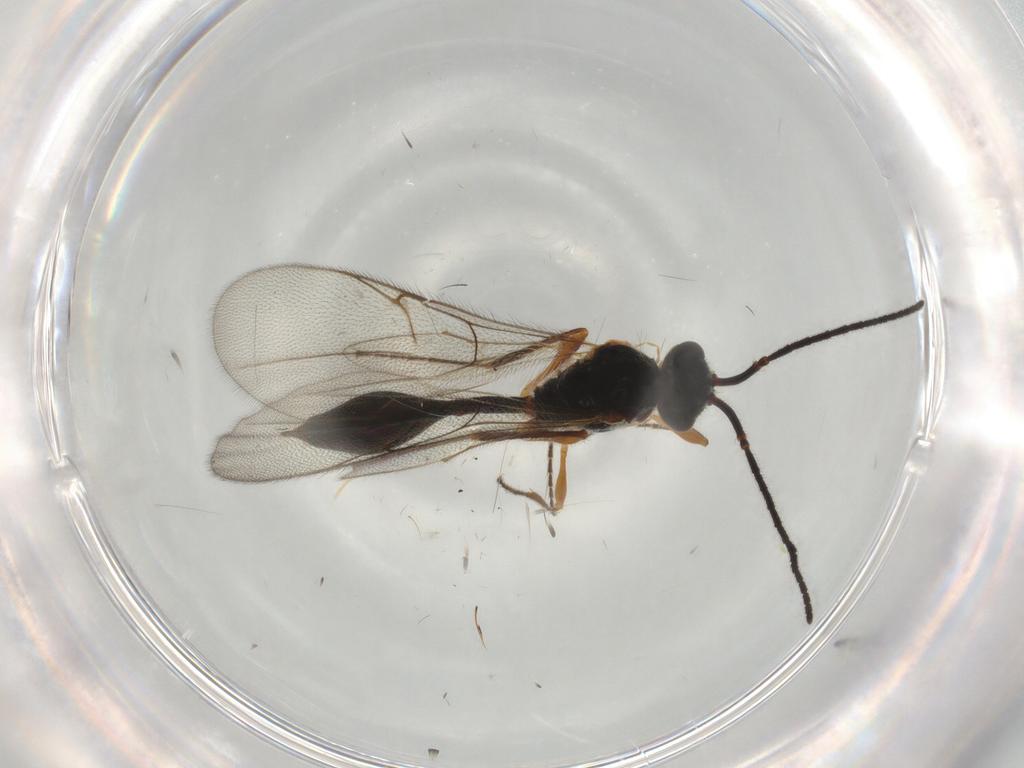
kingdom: Animalia
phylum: Arthropoda
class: Insecta
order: Hymenoptera
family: Diapriidae
